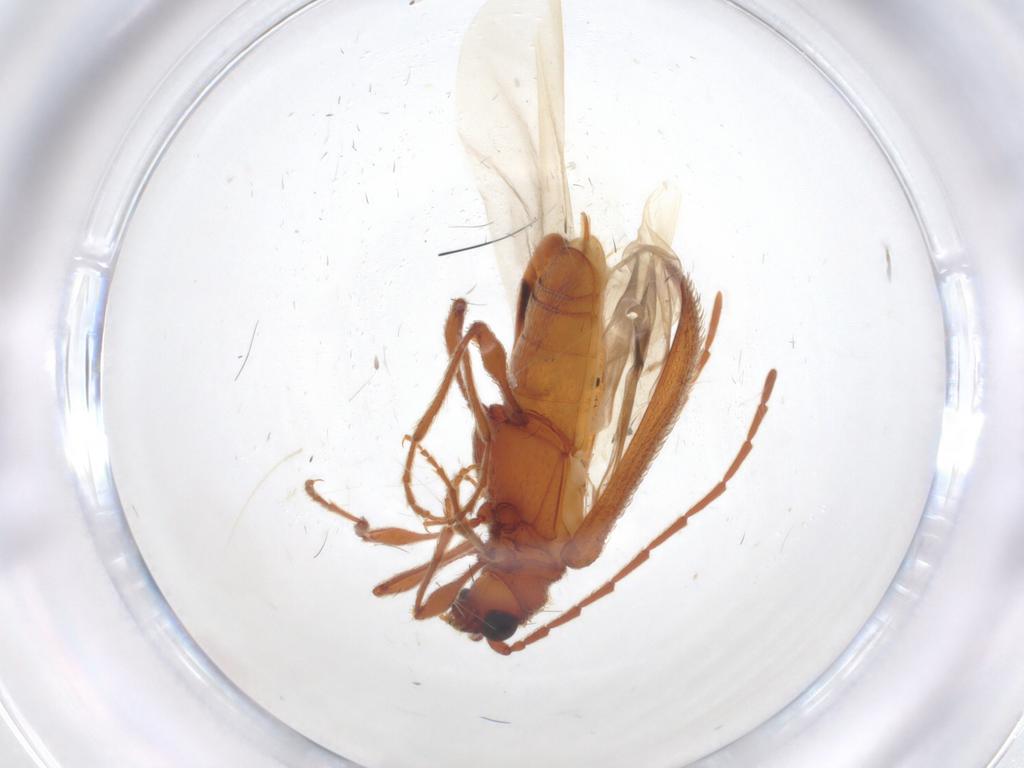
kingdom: Animalia
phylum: Arthropoda
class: Insecta
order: Coleoptera
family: Ptinidae
